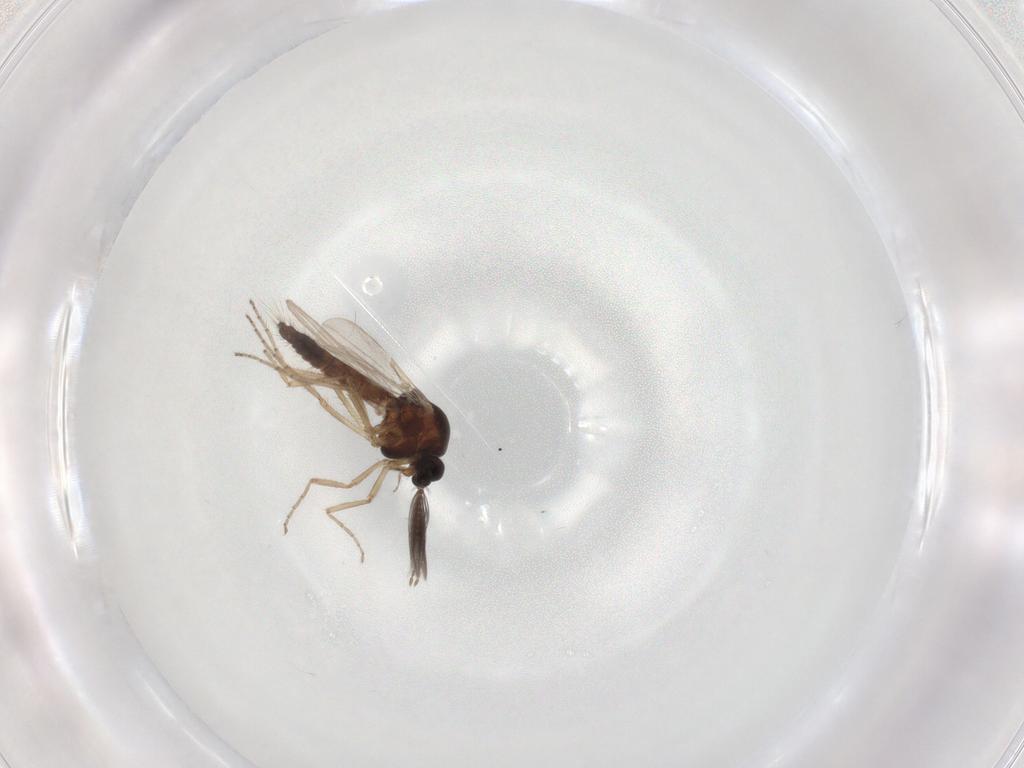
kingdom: Animalia
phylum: Arthropoda
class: Insecta
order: Diptera
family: Ceratopogonidae
